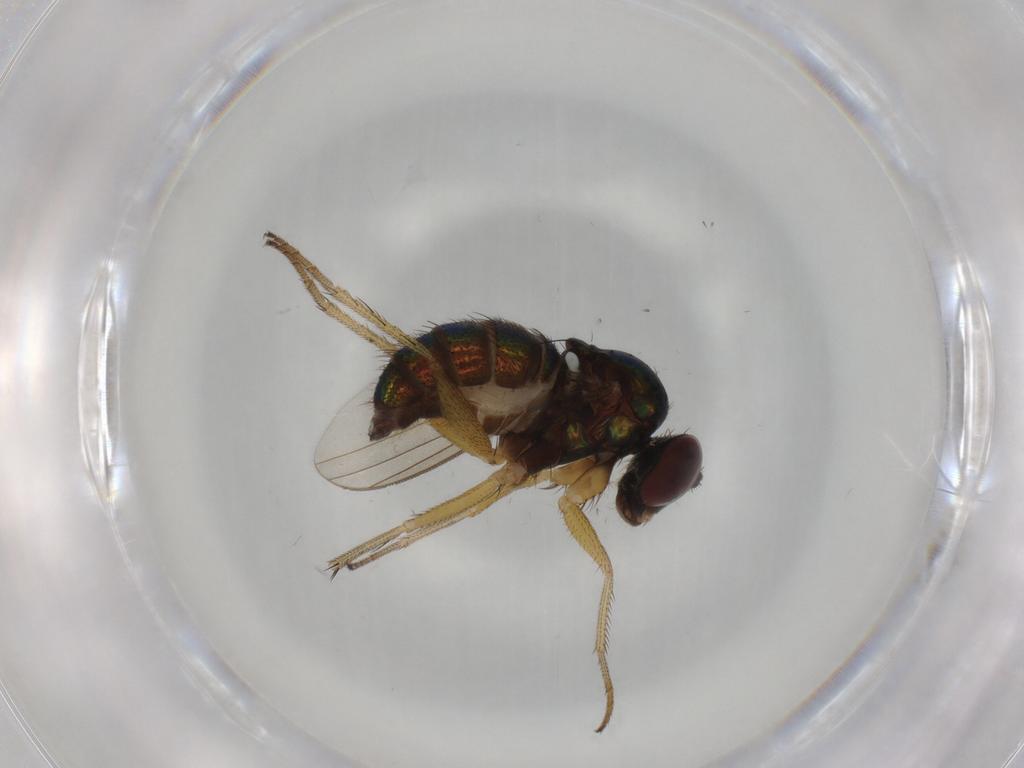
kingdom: Animalia
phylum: Arthropoda
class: Insecta
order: Diptera
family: Dolichopodidae
